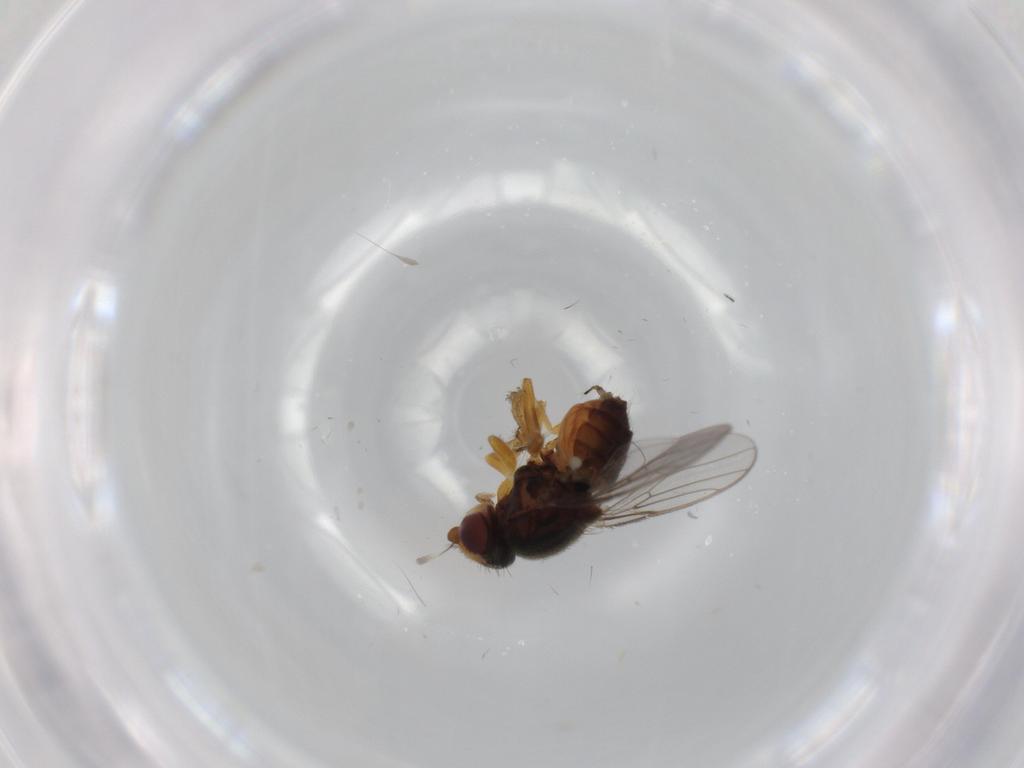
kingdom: Animalia
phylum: Arthropoda
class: Insecta
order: Diptera
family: Chloropidae
